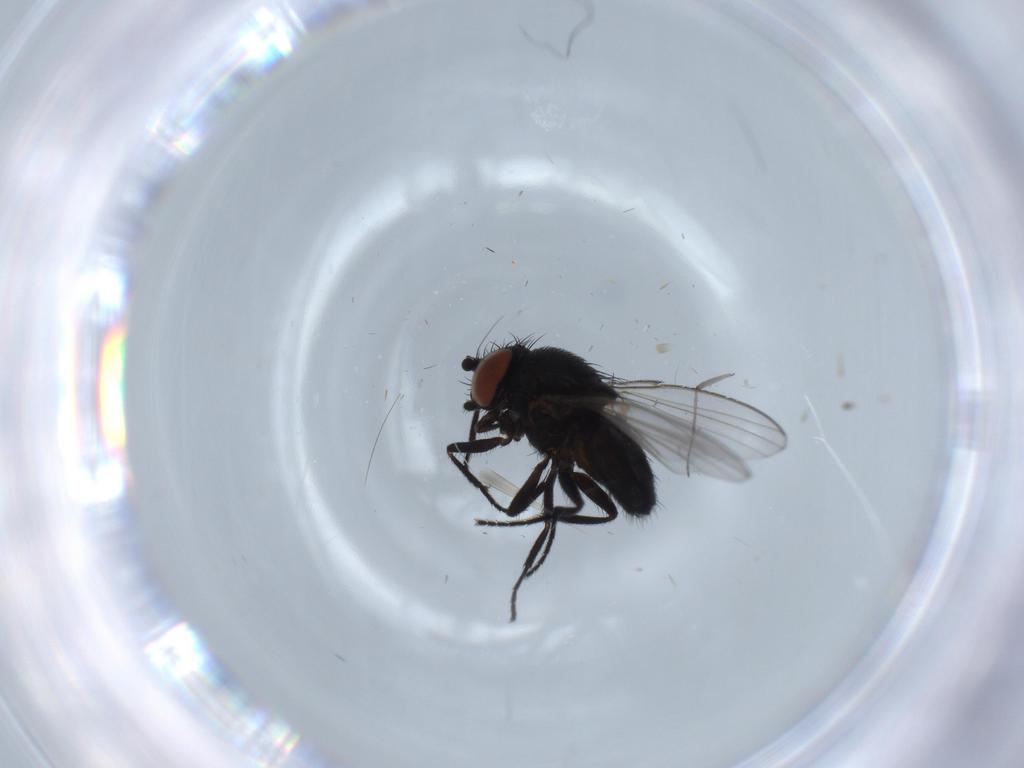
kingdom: Animalia
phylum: Arthropoda
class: Insecta
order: Diptera
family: Milichiidae
